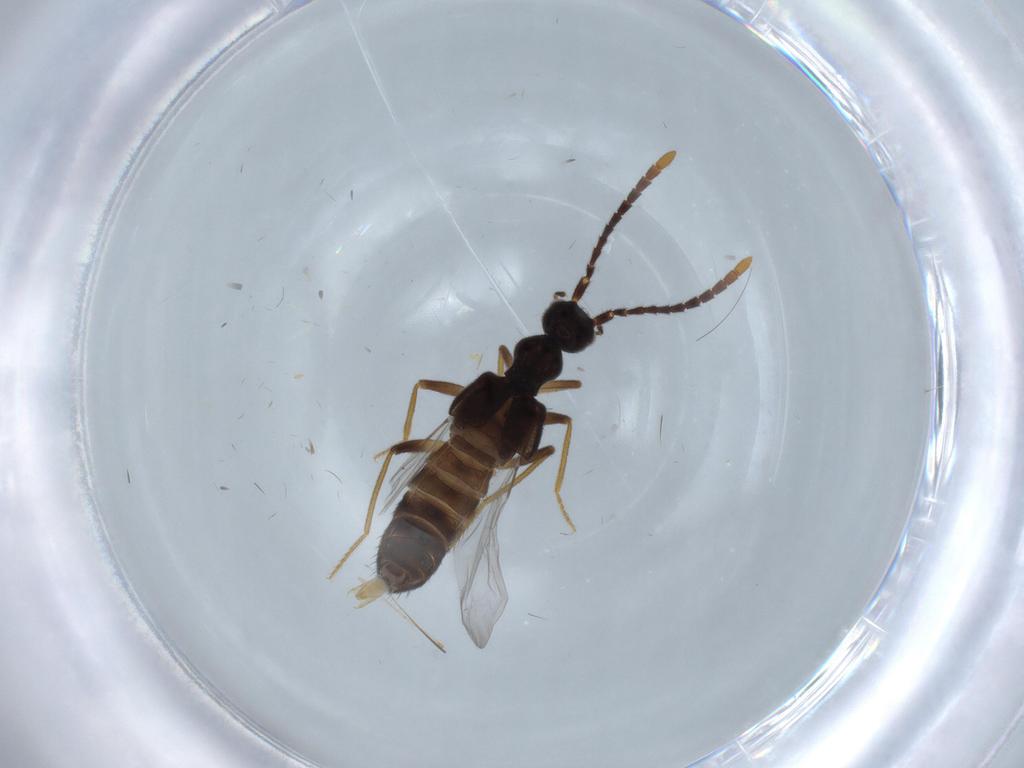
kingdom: Animalia
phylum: Arthropoda
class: Insecta
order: Coleoptera
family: Staphylinidae
